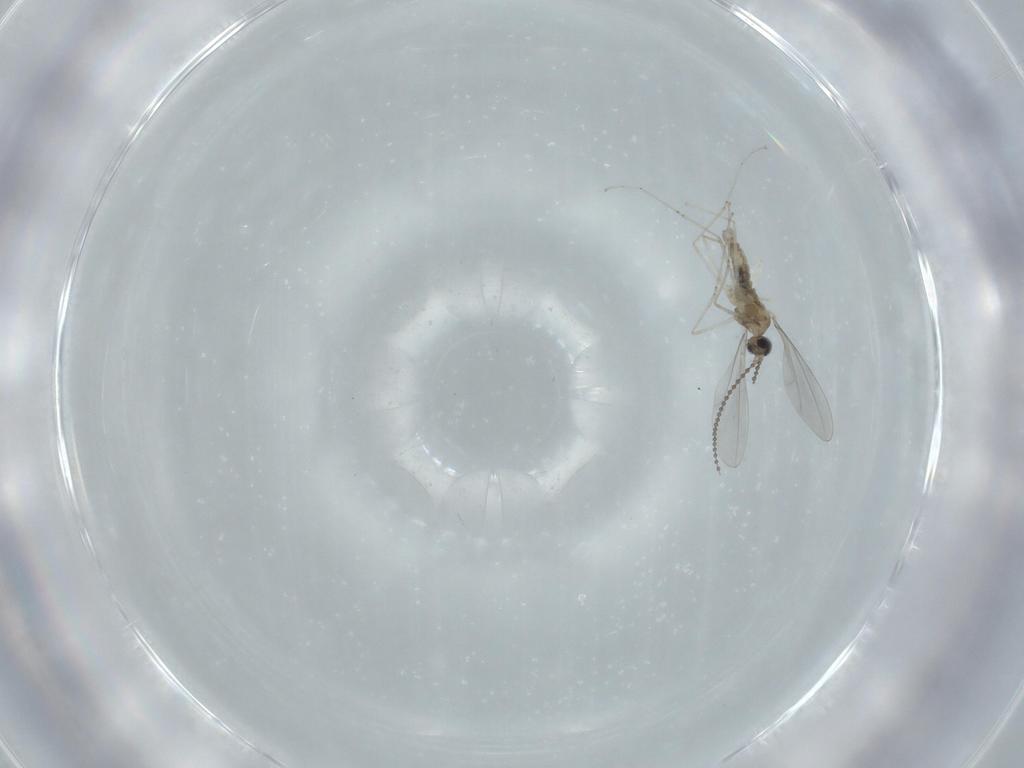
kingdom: Animalia
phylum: Arthropoda
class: Insecta
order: Diptera
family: Cecidomyiidae
